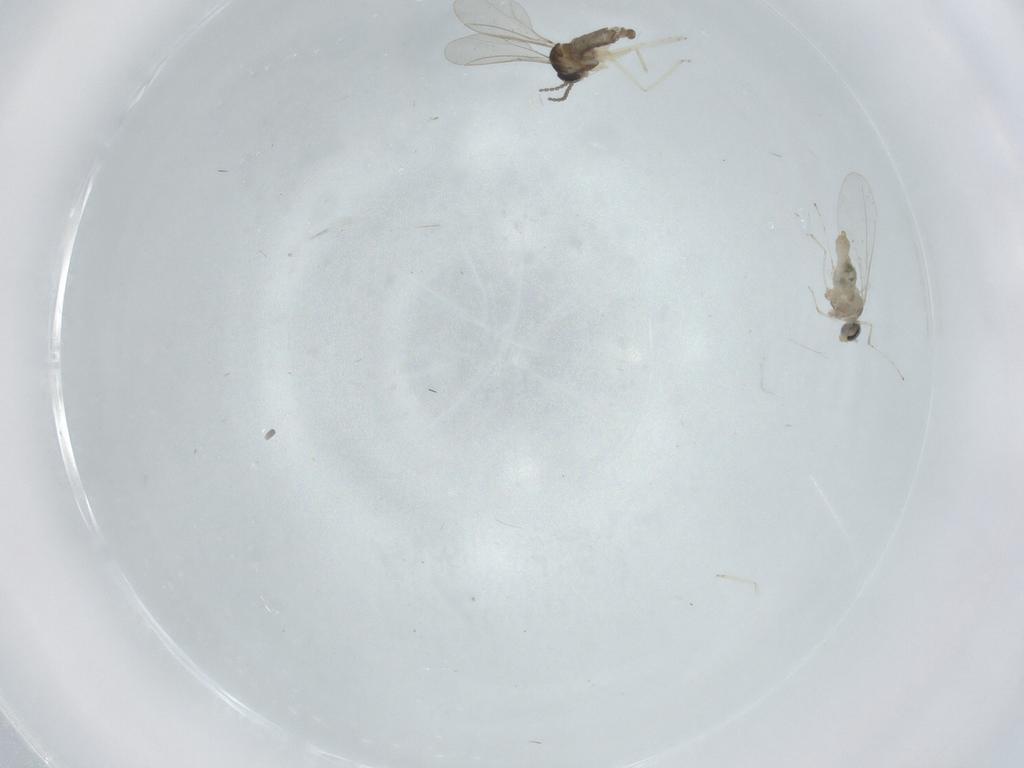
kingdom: Animalia
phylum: Arthropoda
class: Insecta
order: Diptera
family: Cecidomyiidae
